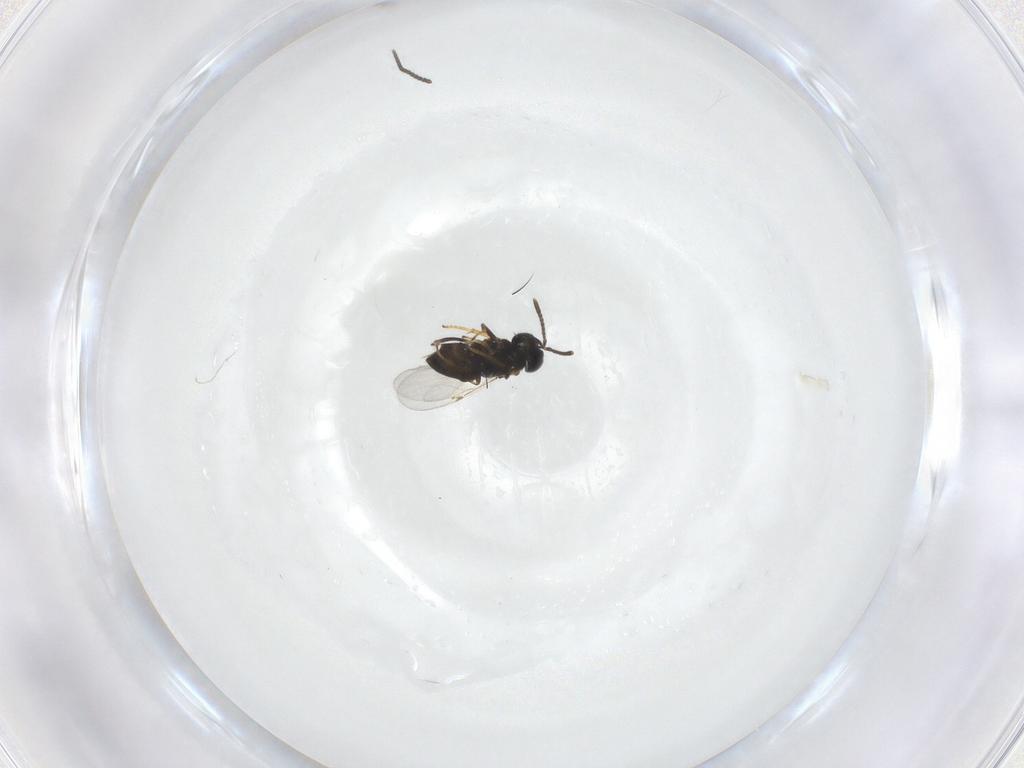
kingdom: Animalia
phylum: Arthropoda
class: Insecta
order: Hymenoptera
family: Encyrtidae
